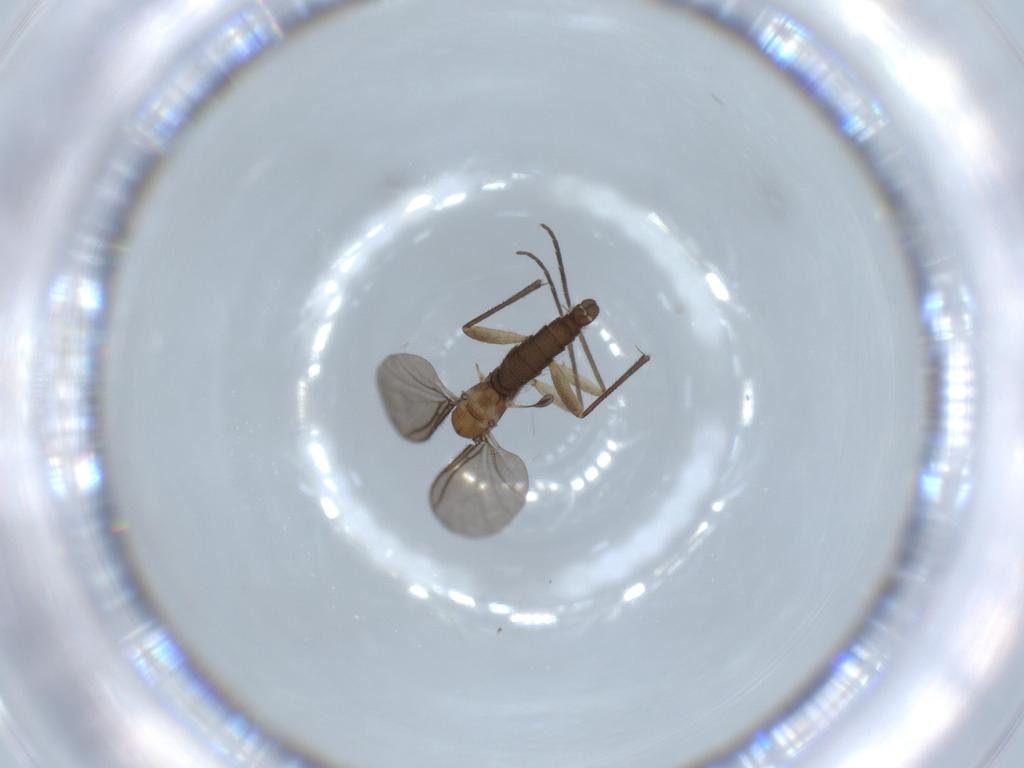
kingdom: Animalia
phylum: Arthropoda
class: Insecta
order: Diptera
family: Sciaridae
